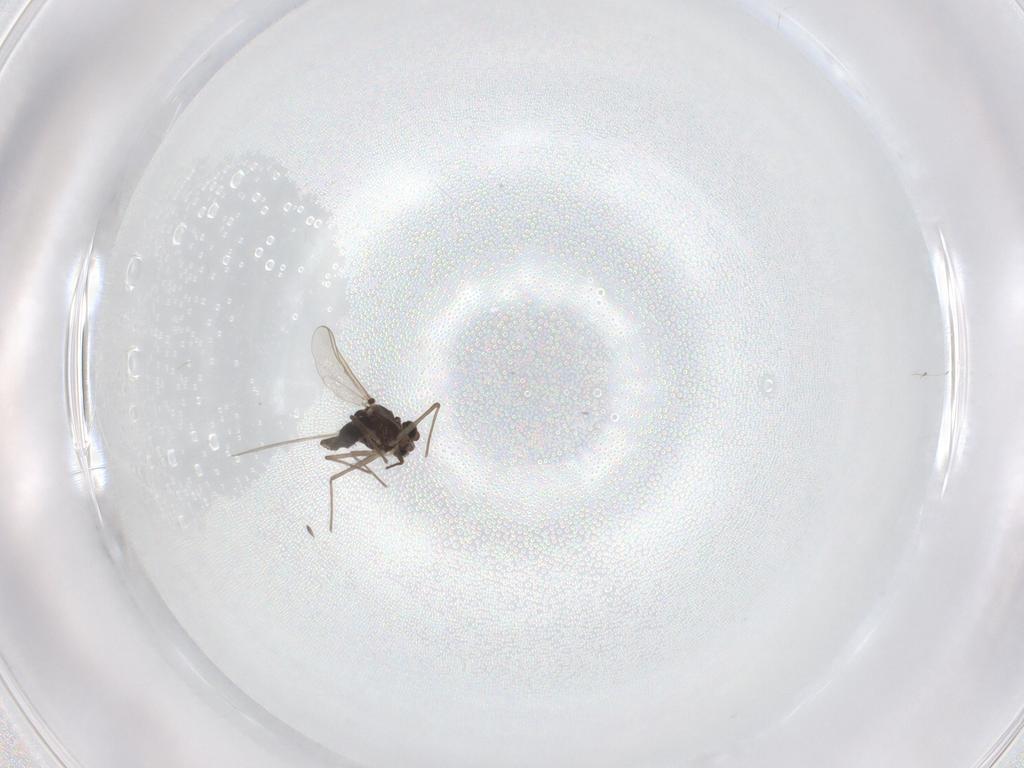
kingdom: Animalia
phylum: Arthropoda
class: Insecta
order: Diptera
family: Chironomidae
